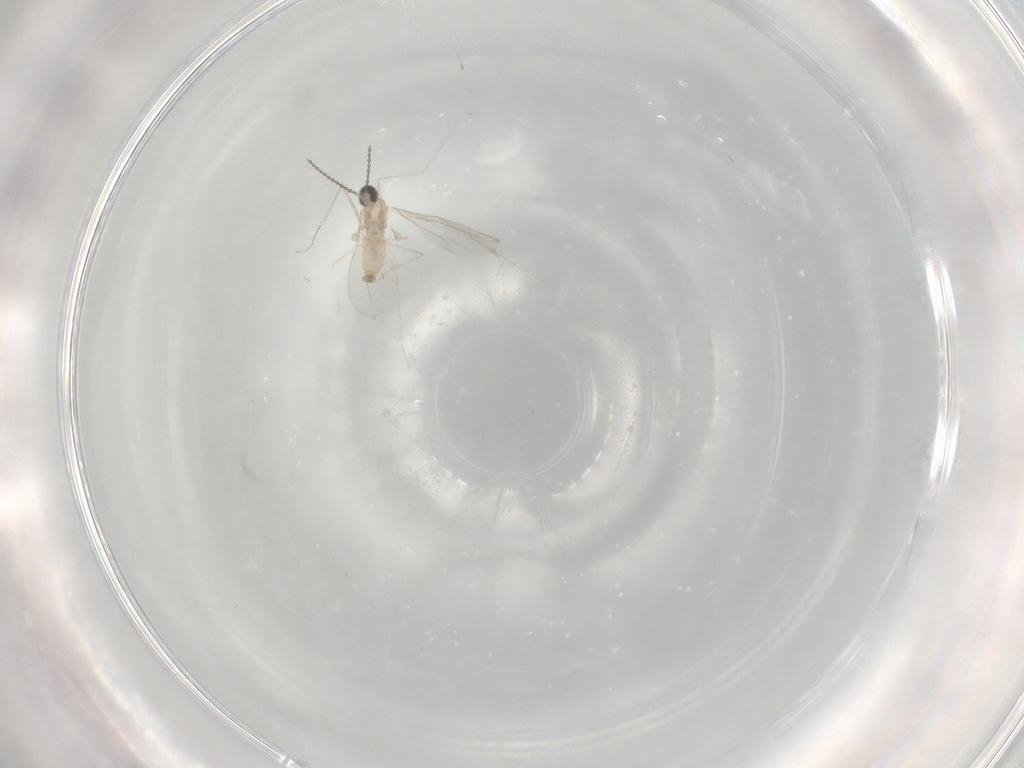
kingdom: Animalia
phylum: Arthropoda
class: Insecta
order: Diptera
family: Cecidomyiidae
